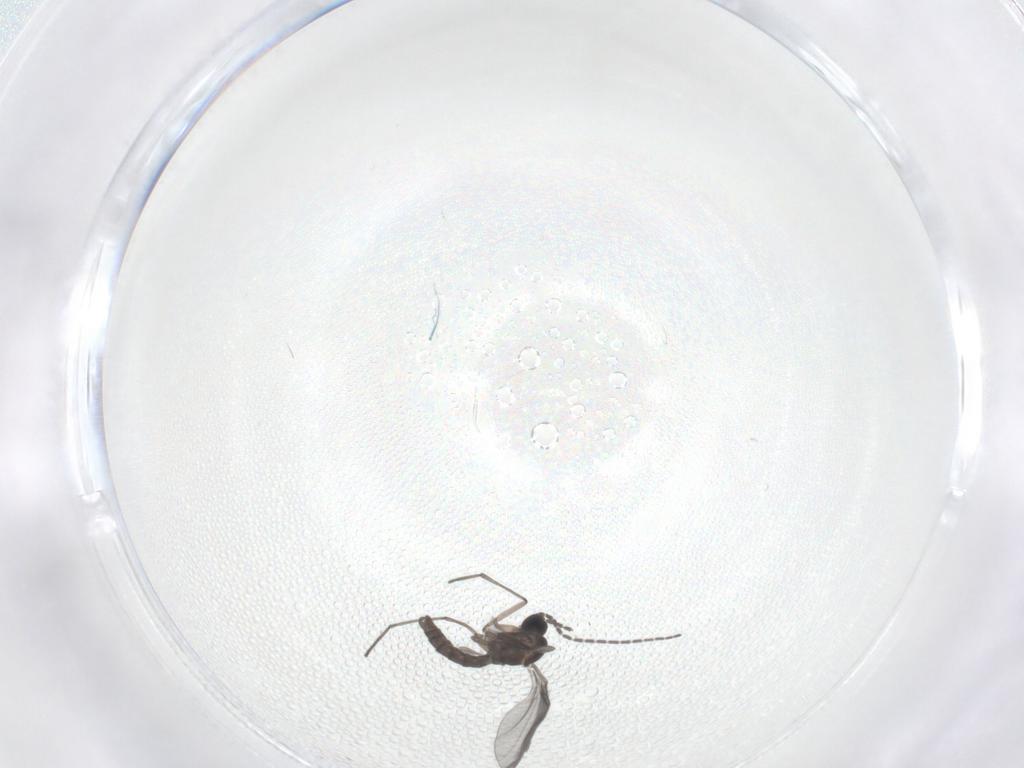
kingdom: Animalia
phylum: Arthropoda
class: Insecta
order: Diptera
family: Sciaridae
